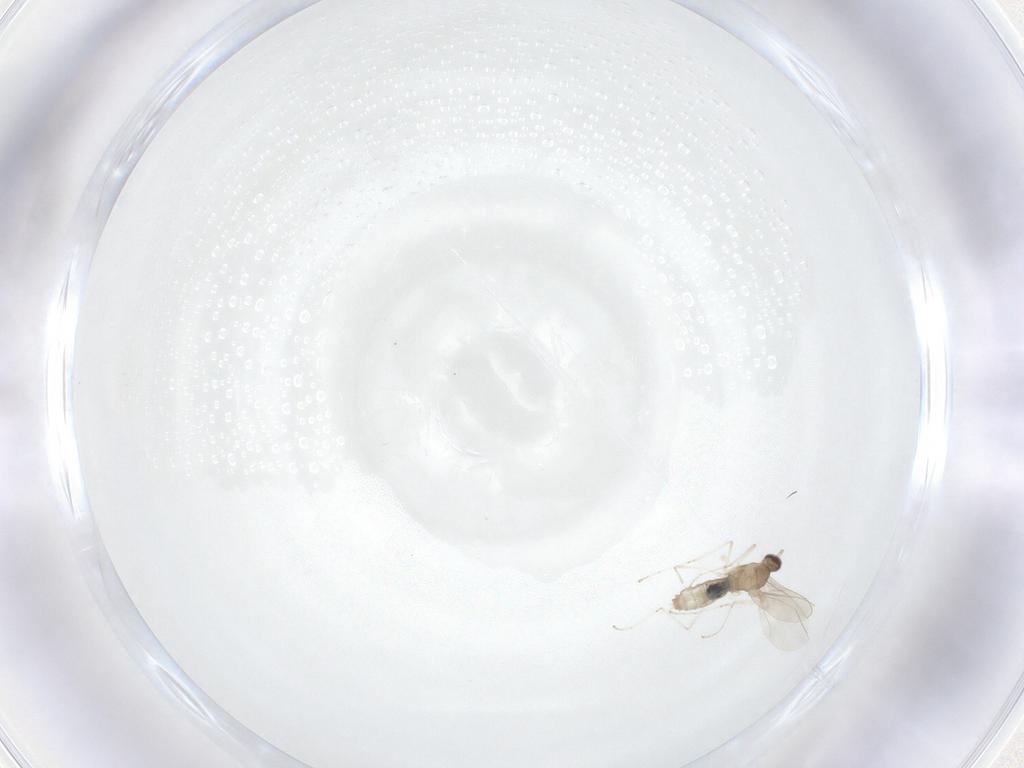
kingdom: Animalia
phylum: Arthropoda
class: Insecta
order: Diptera
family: Cecidomyiidae
